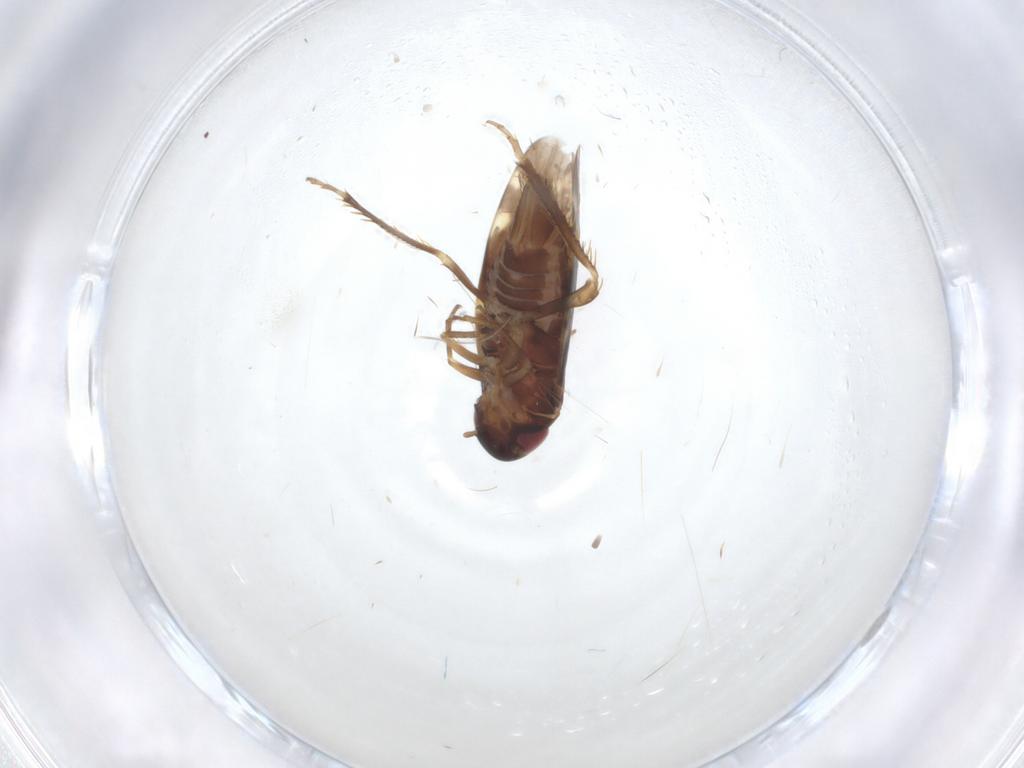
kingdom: Animalia
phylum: Arthropoda
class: Insecta
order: Hemiptera
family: Cicadellidae
